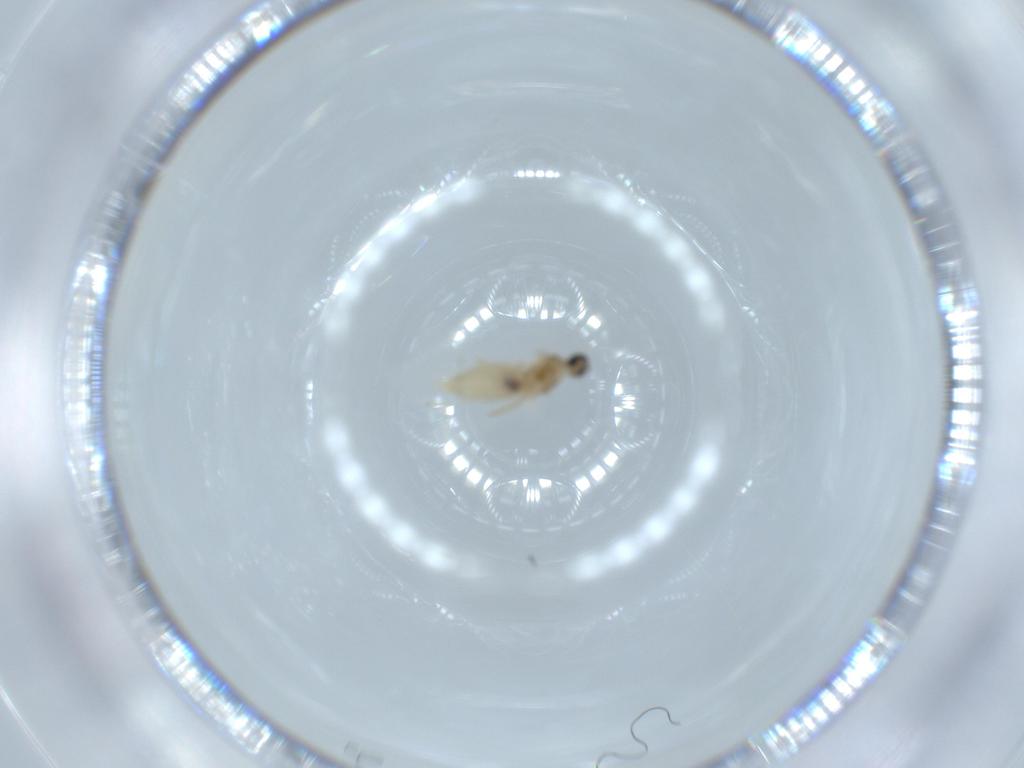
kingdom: Animalia
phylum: Arthropoda
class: Insecta
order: Diptera
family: Cecidomyiidae
